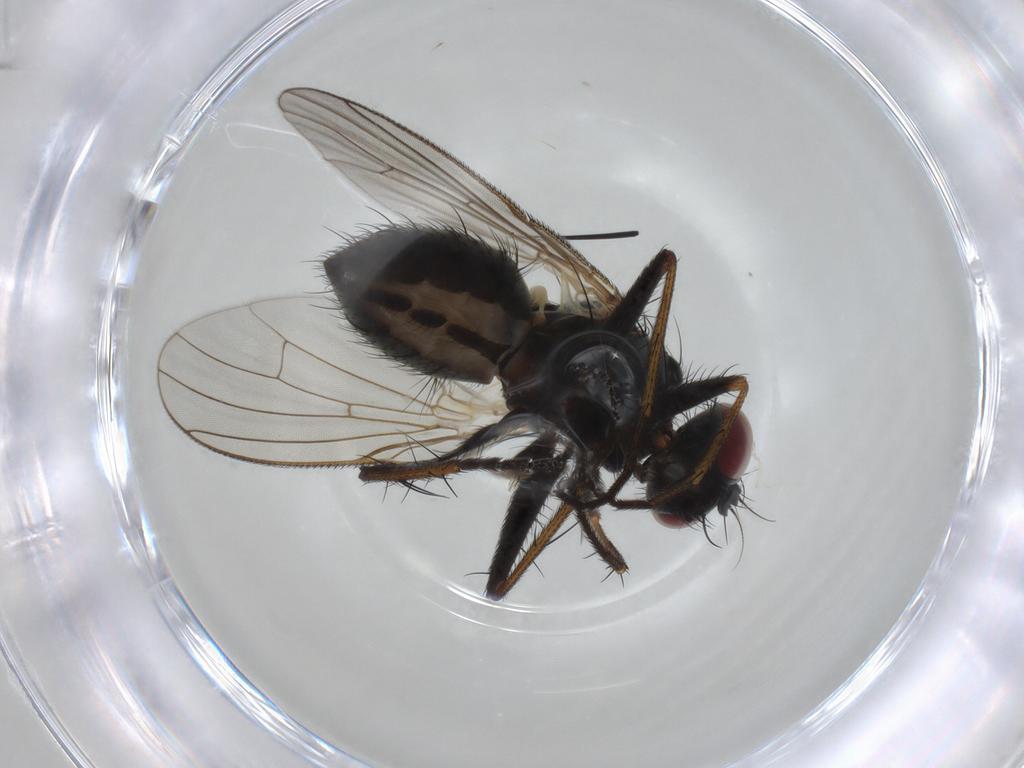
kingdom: Animalia
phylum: Arthropoda
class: Insecta
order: Diptera
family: Muscidae
